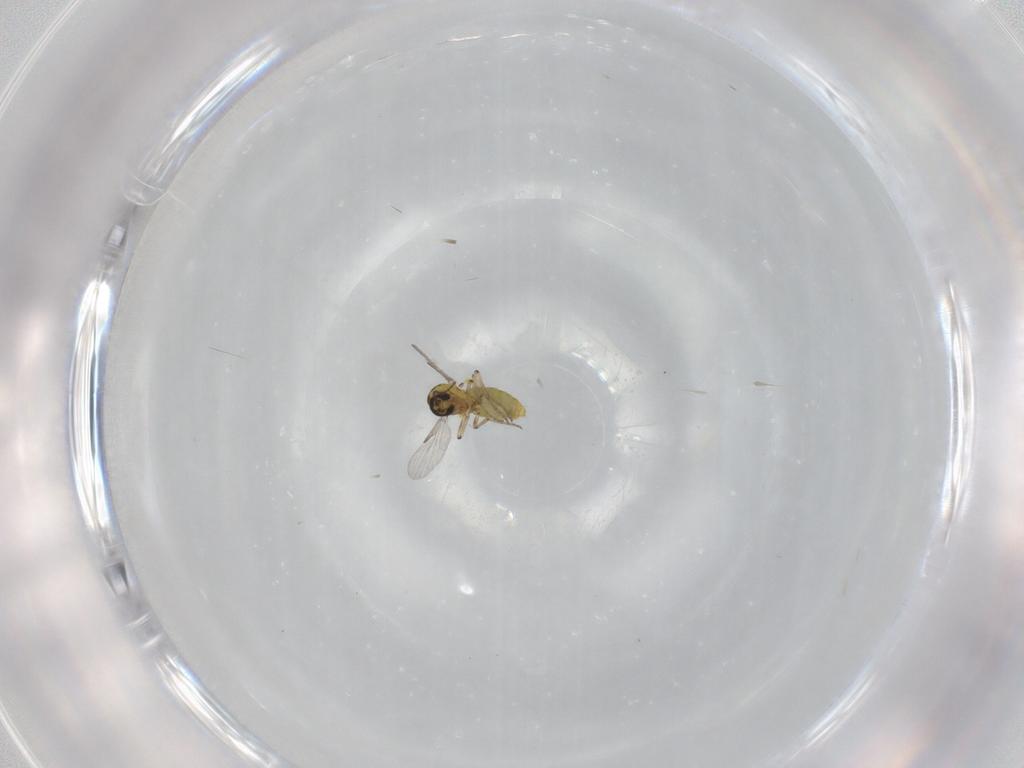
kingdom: Animalia
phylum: Arthropoda
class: Insecta
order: Diptera
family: Ceratopogonidae
